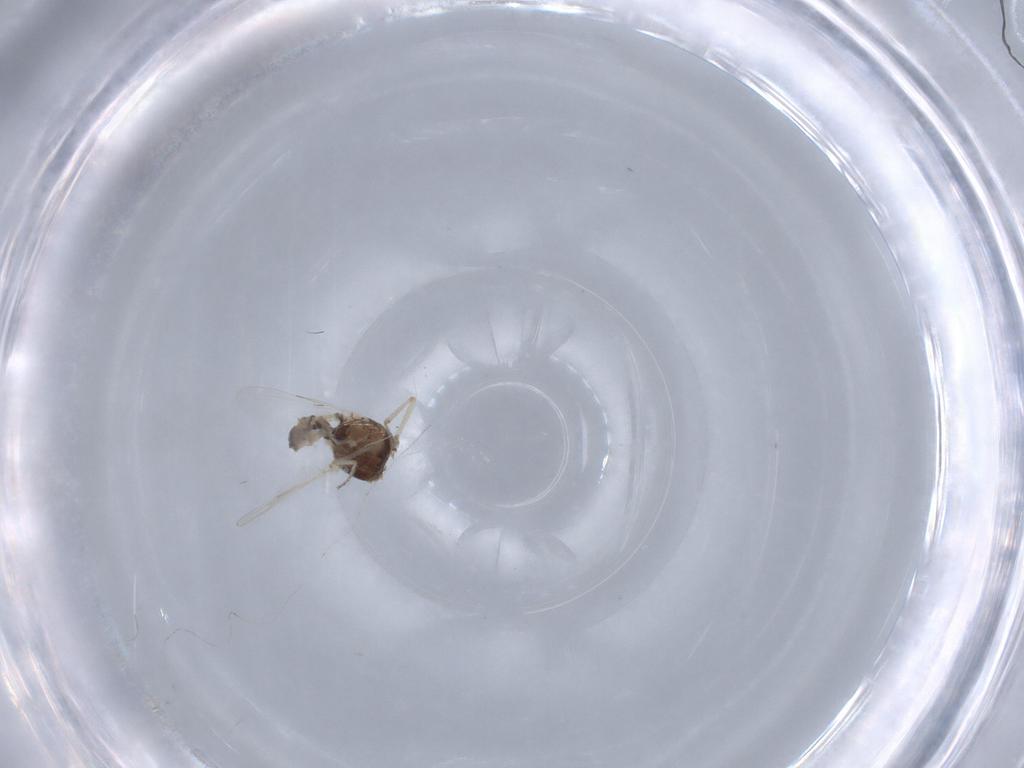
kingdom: Animalia
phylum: Arthropoda
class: Insecta
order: Diptera
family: Ceratopogonidae
